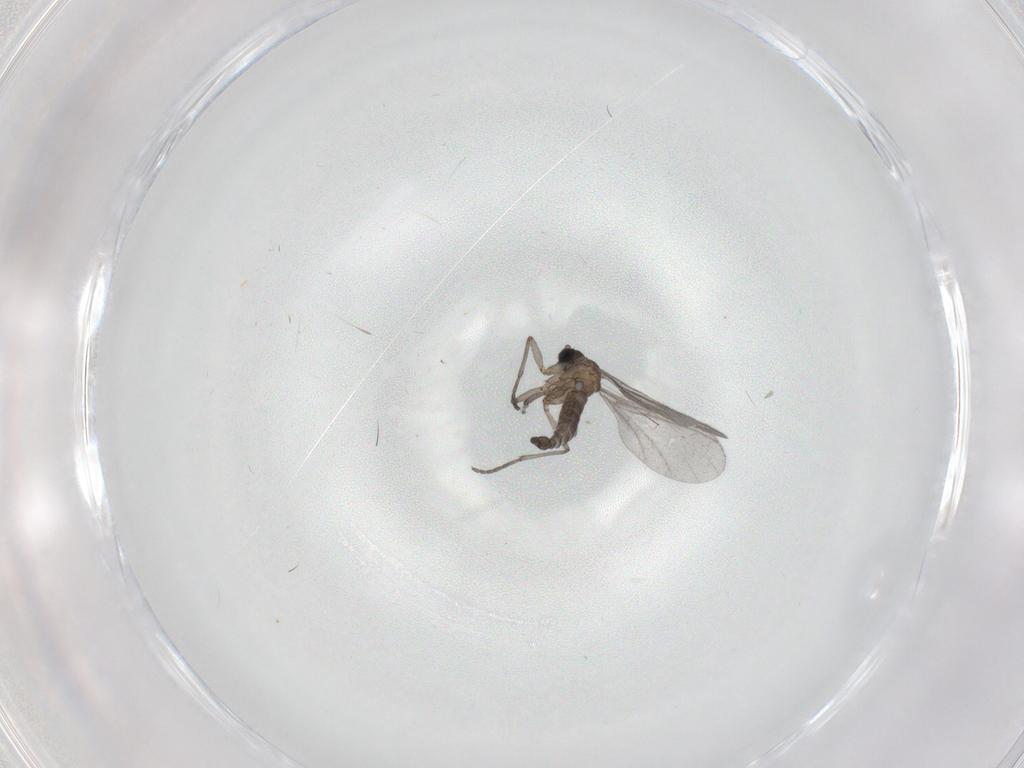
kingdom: Animalia
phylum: Arthropoda
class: Insecta
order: Diptera
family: Sciaridae
